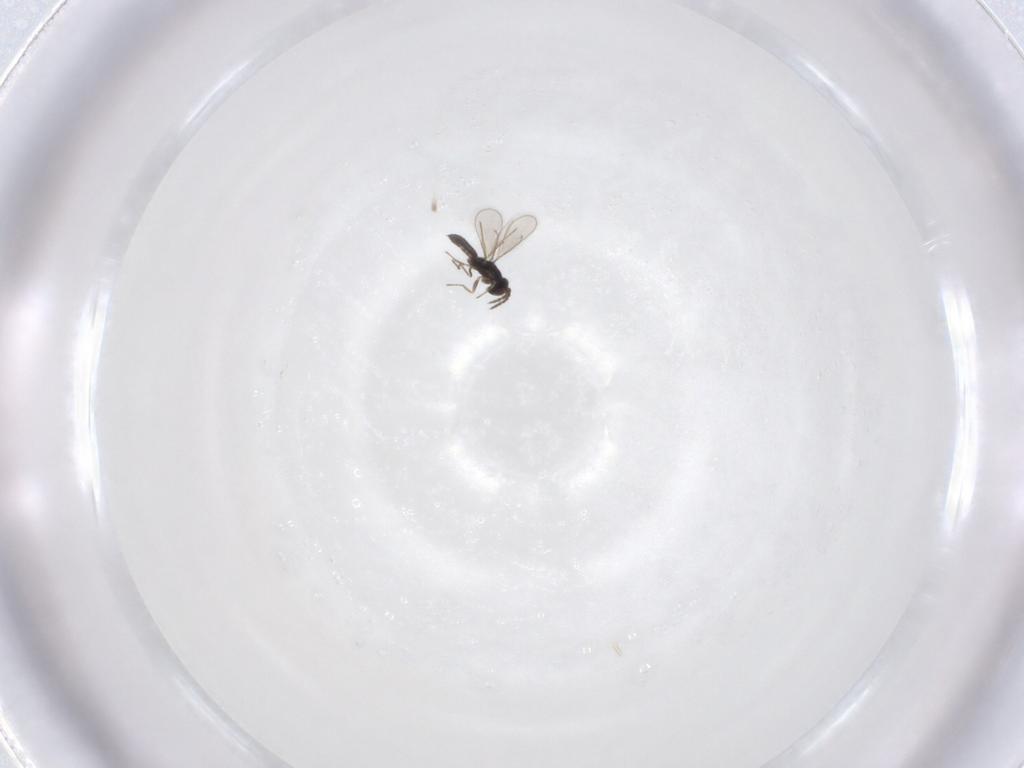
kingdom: Animalia
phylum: Arthropoda
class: Insecta
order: Hymenoptera
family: Eulophidae
